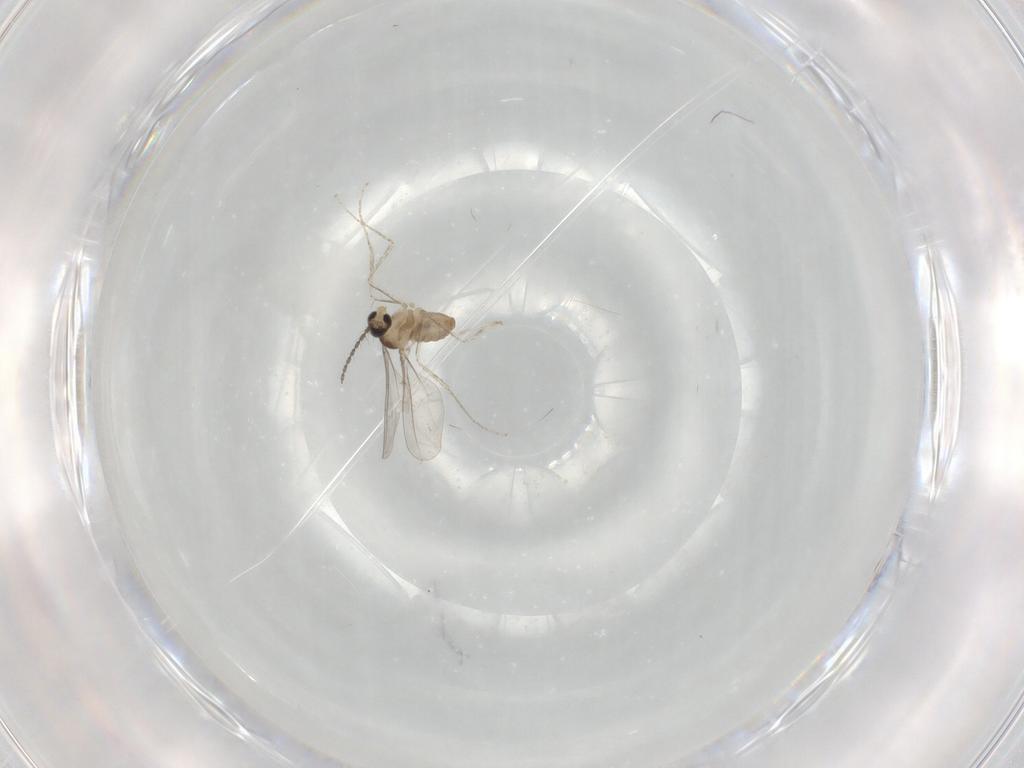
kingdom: Animalia
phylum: Arthropoda
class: Insecta
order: Diptera
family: Cecidomyiidae
